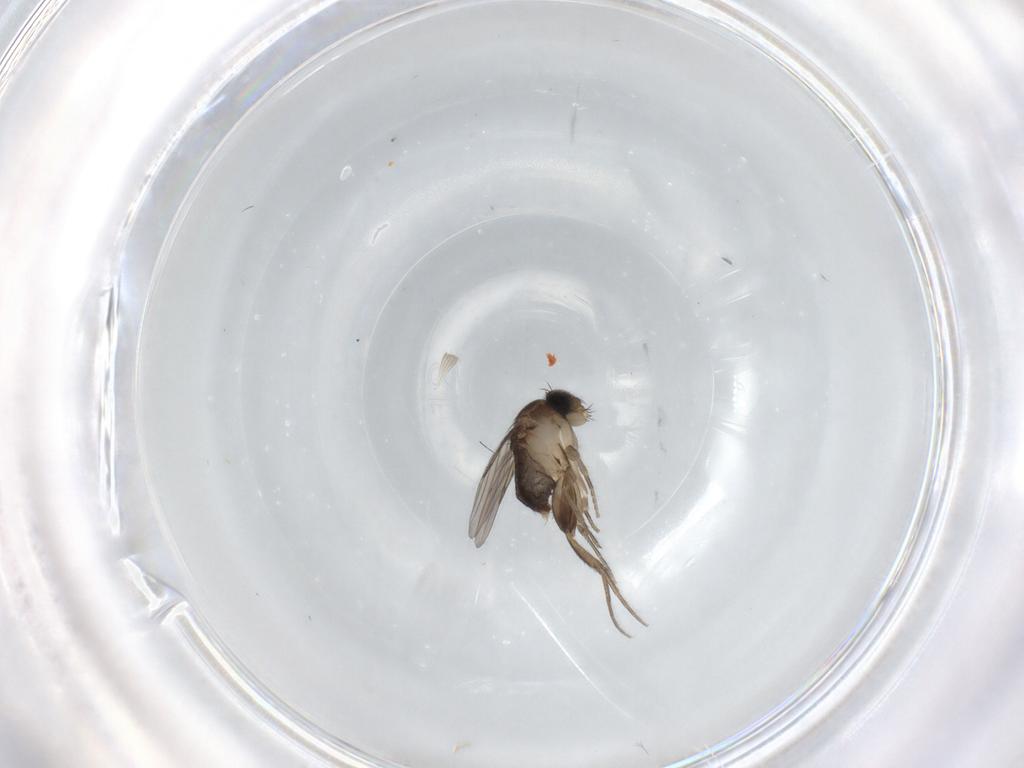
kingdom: Animalia
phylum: Arthropoda
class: Insecta
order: Diptera
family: Phoridae
